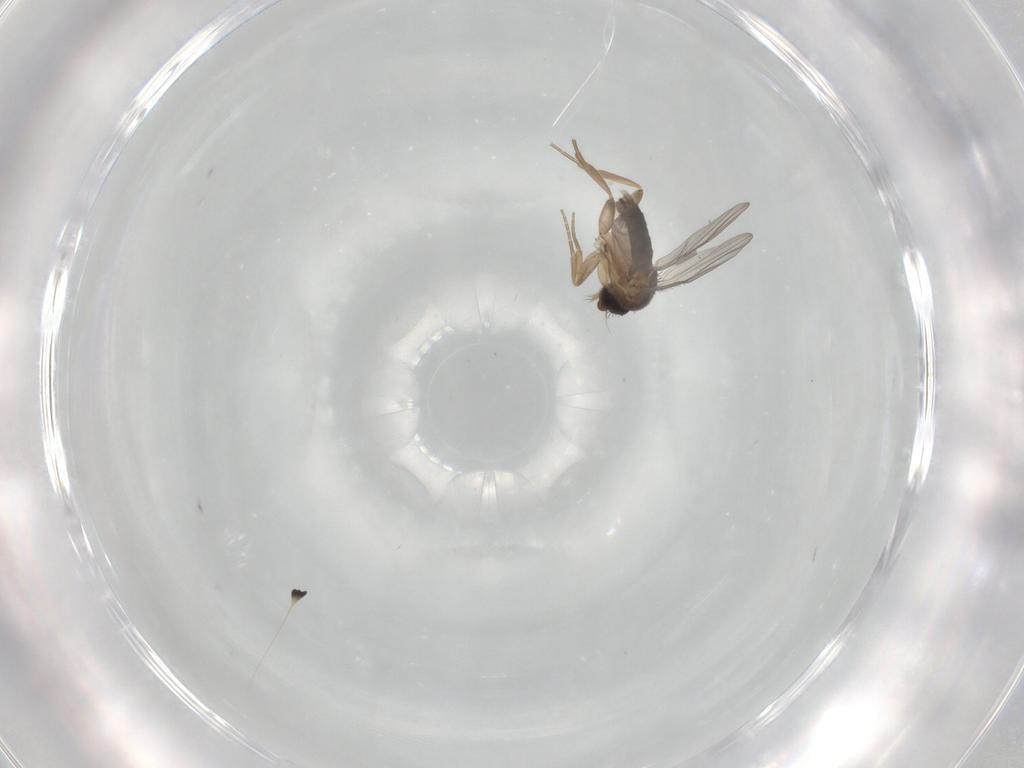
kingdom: Animalia
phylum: Arthropoda
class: Insecta
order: Diptera
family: Phoridae
